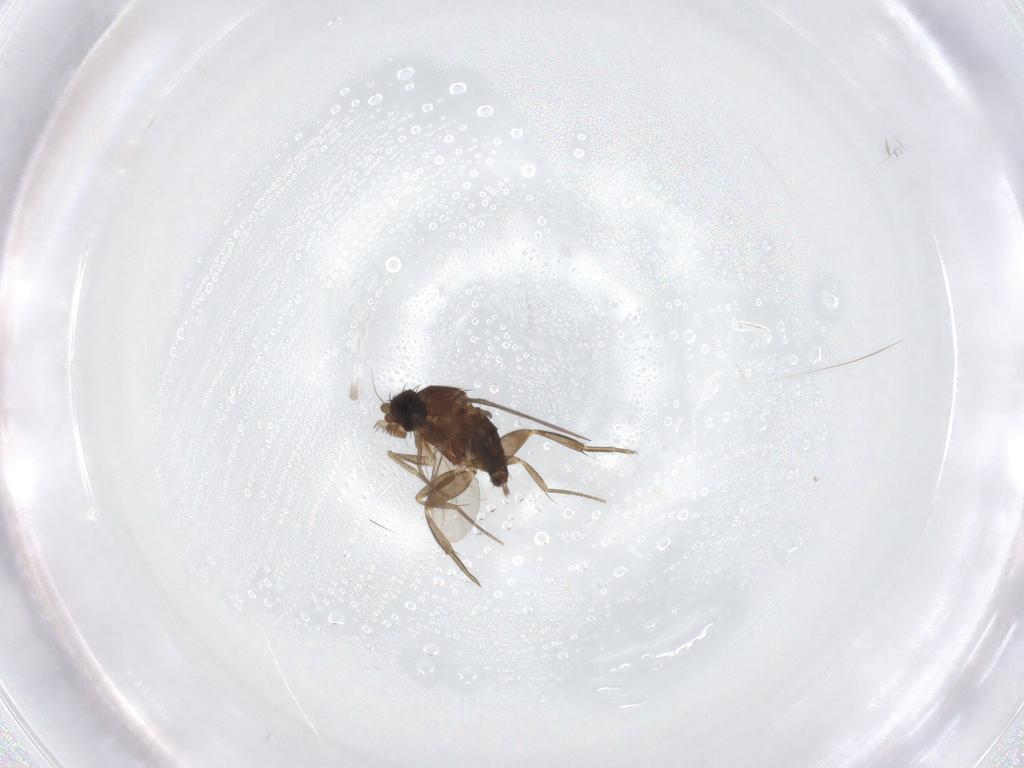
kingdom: Animalia
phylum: Arthropoda
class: Insecta
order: Diptera
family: Phoridae
